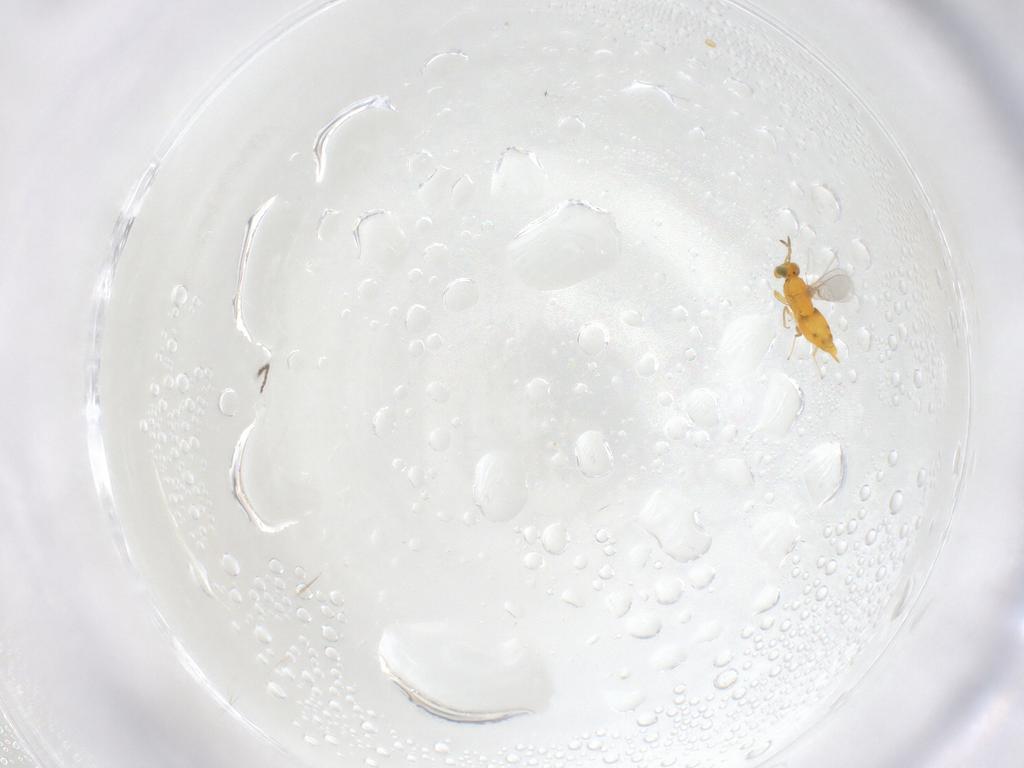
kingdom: Animalia
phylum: Arthropoda
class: Insecta
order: Hymenoptera
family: Aphelinidae
